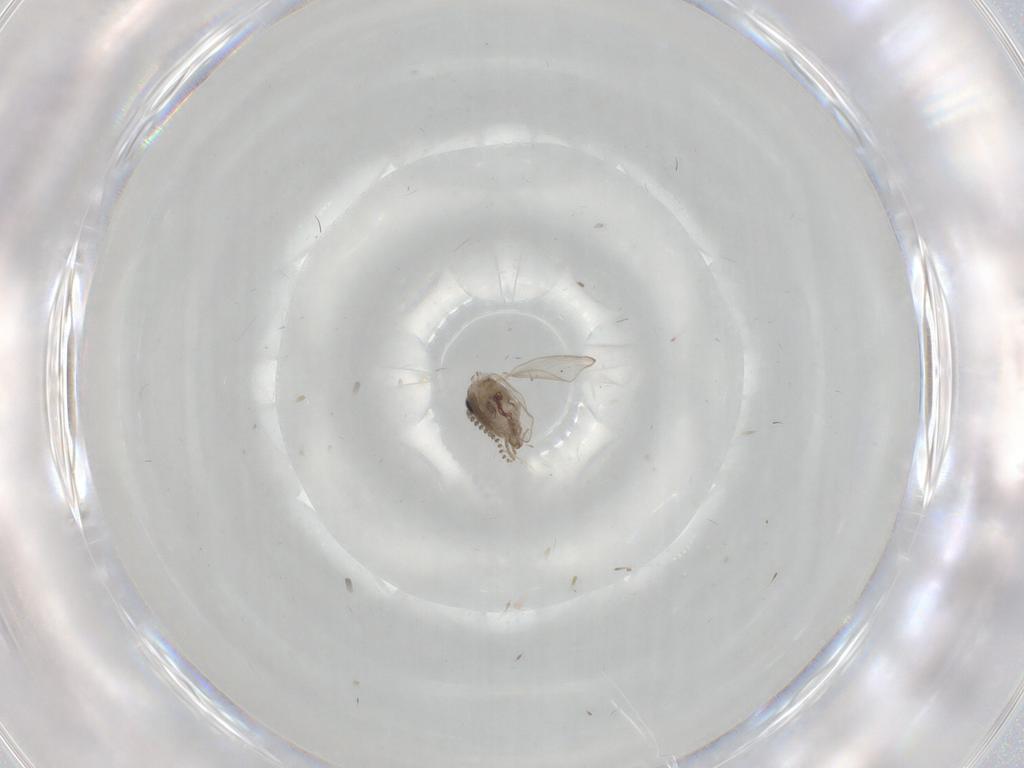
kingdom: Animalia
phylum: Arthropoda
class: Insecta
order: Diptera
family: Psychodidae
